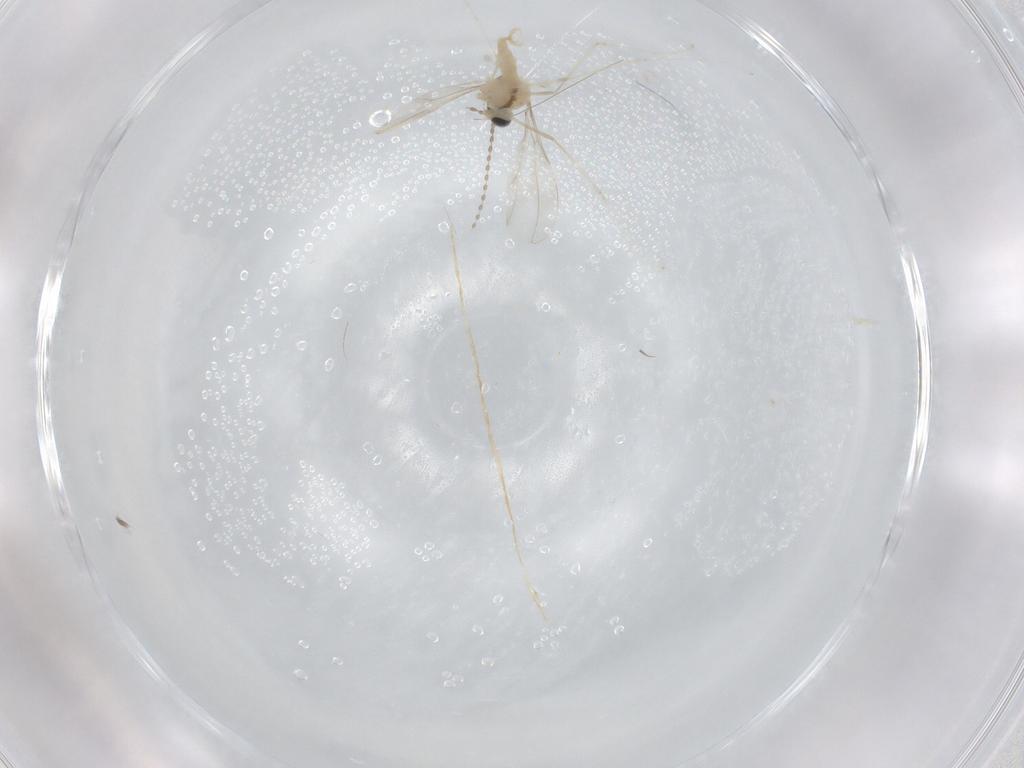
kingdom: Animalia
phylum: Arthropoda
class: Insecta
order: Diptera
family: Cecidomyiidae
